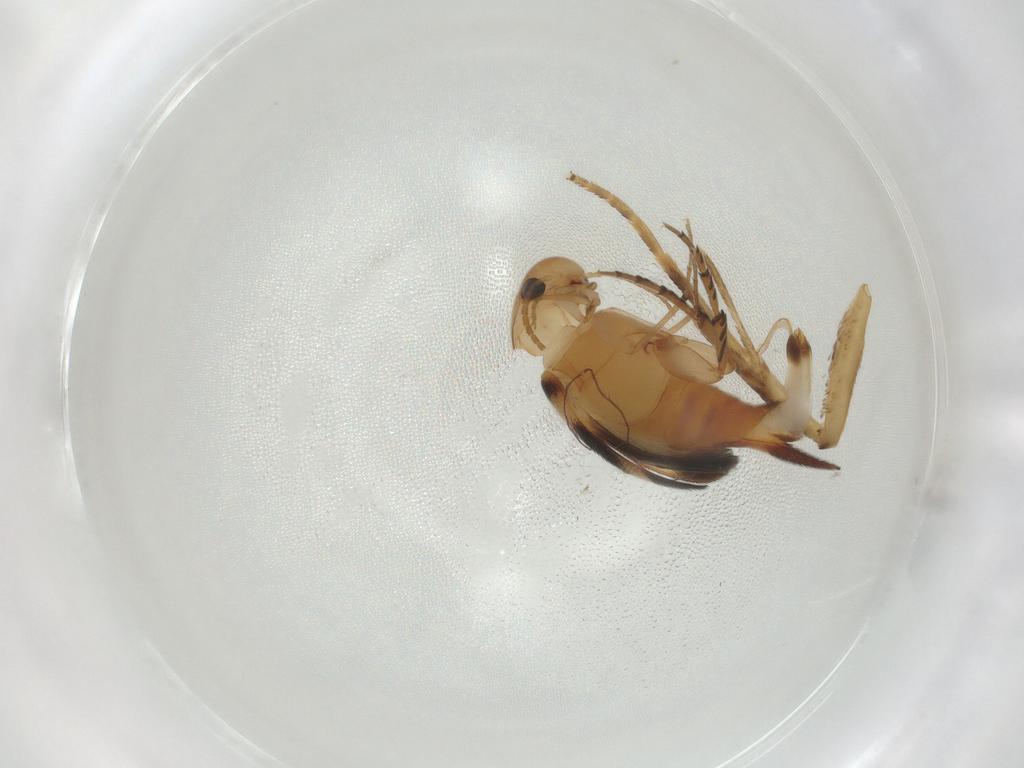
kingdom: Animalia
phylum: Arthropoda
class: Insecta
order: Coleoptera
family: Mordellidae
